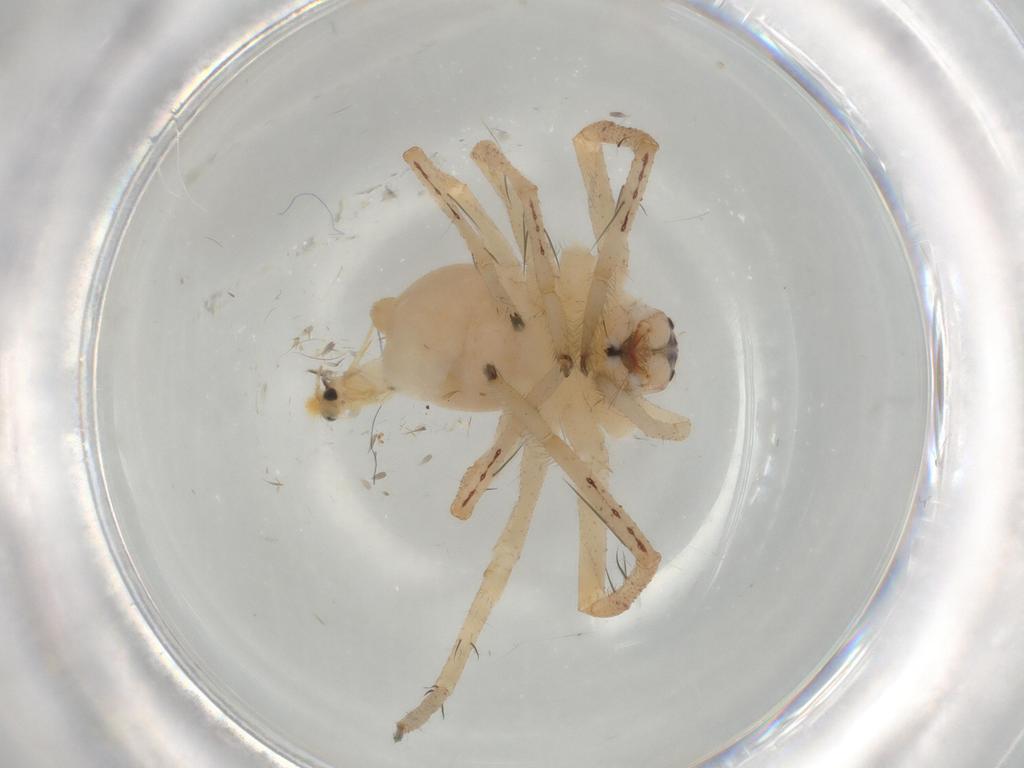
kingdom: Animalia
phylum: Arthropoda
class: Arachnida
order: Araneae
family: Sparassidae
